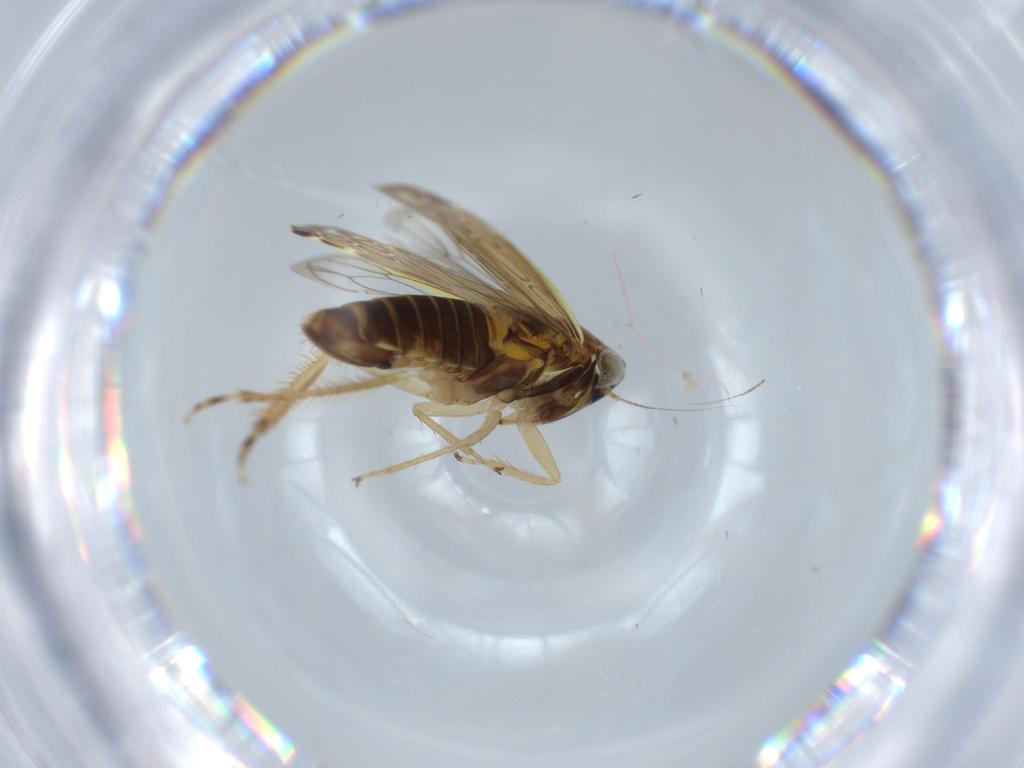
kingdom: Animalia
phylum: Arthropoda
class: Insecta
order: Hemiptera
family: Cicadellidae
